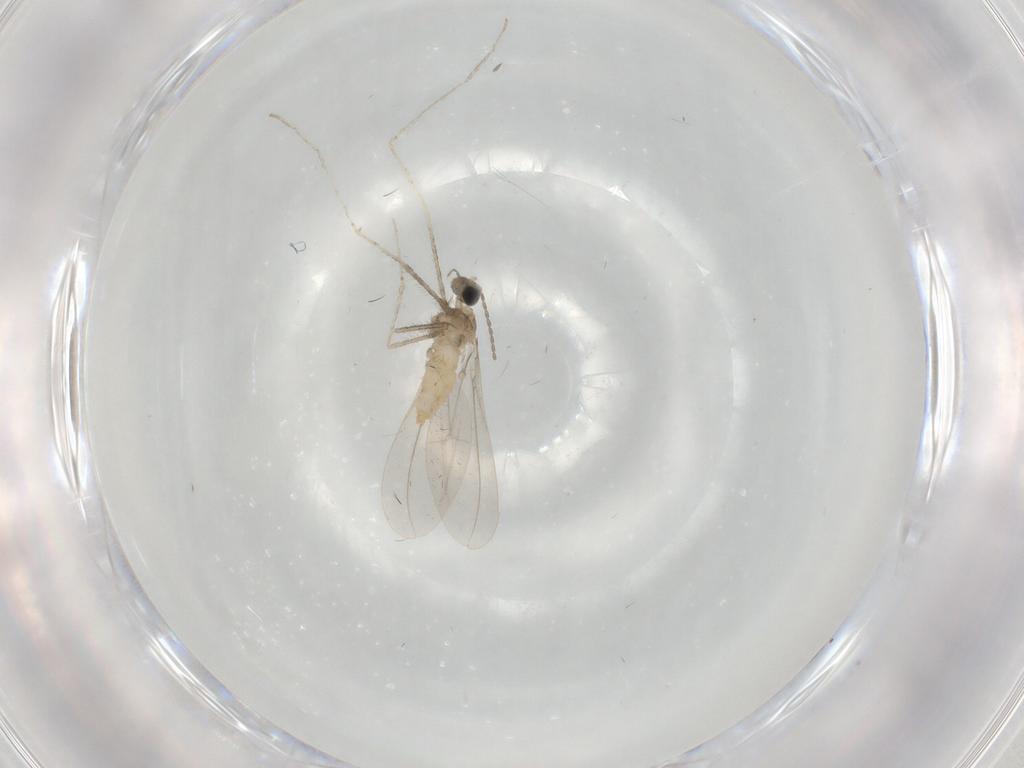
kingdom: Animalia
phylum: Arthropoda
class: Insecta
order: Diptera
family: Cecidomyiidae
